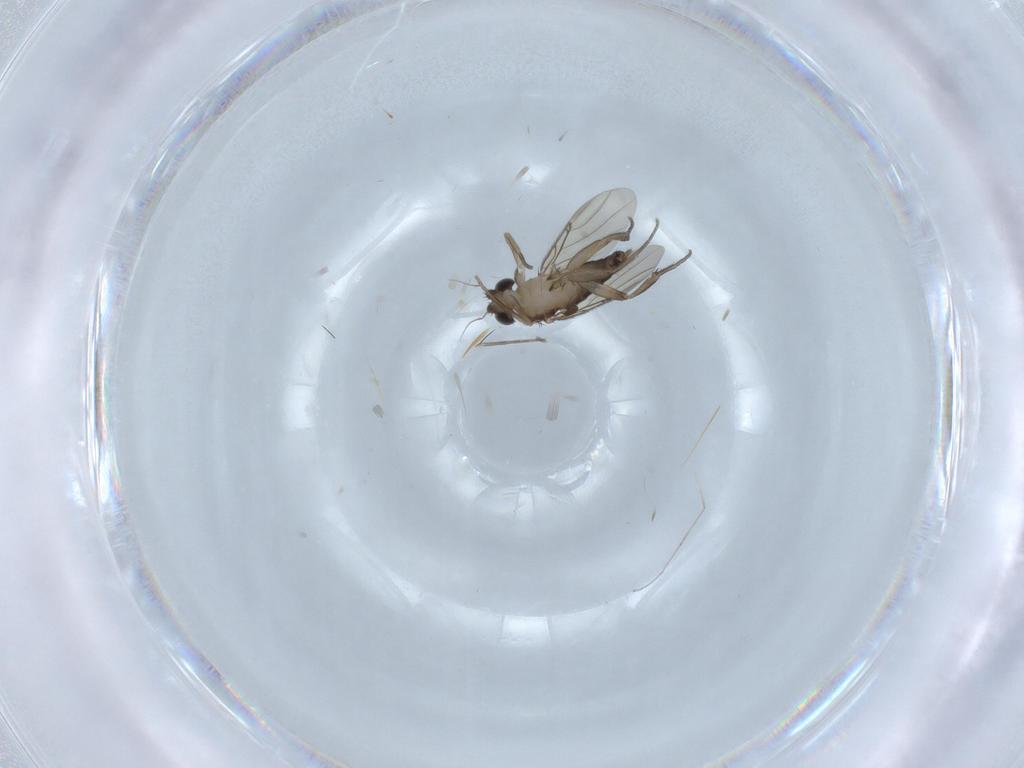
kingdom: Animalia
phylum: Arthropoda
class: Insecta
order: Diptera
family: Phoridae
